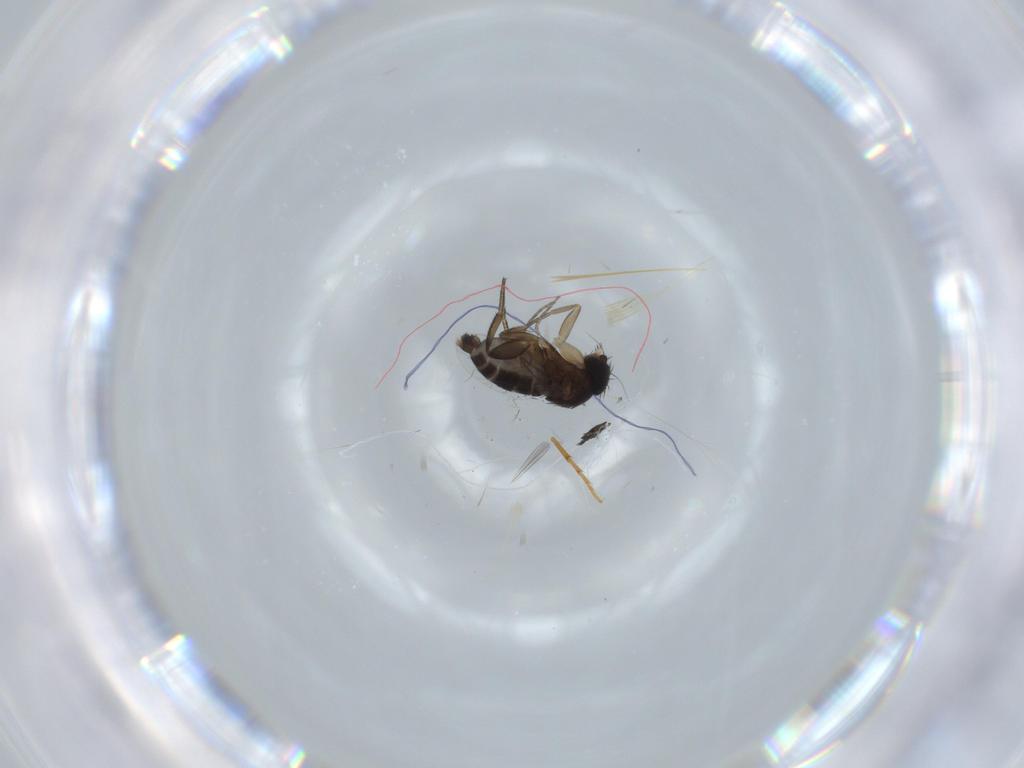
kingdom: Animalia
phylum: Arthropoda
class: Insecta
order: Diptera
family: Phoridae
